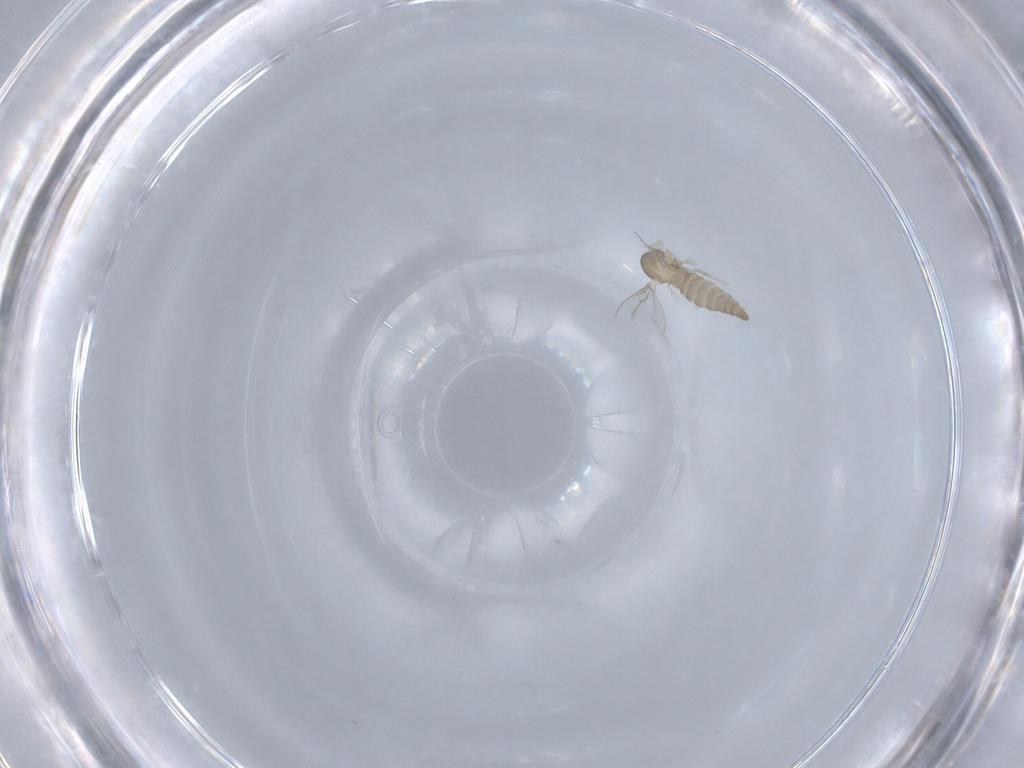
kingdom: Animalia
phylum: Arthropoda
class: Insecta
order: Diptera
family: Cecidomyiidae
